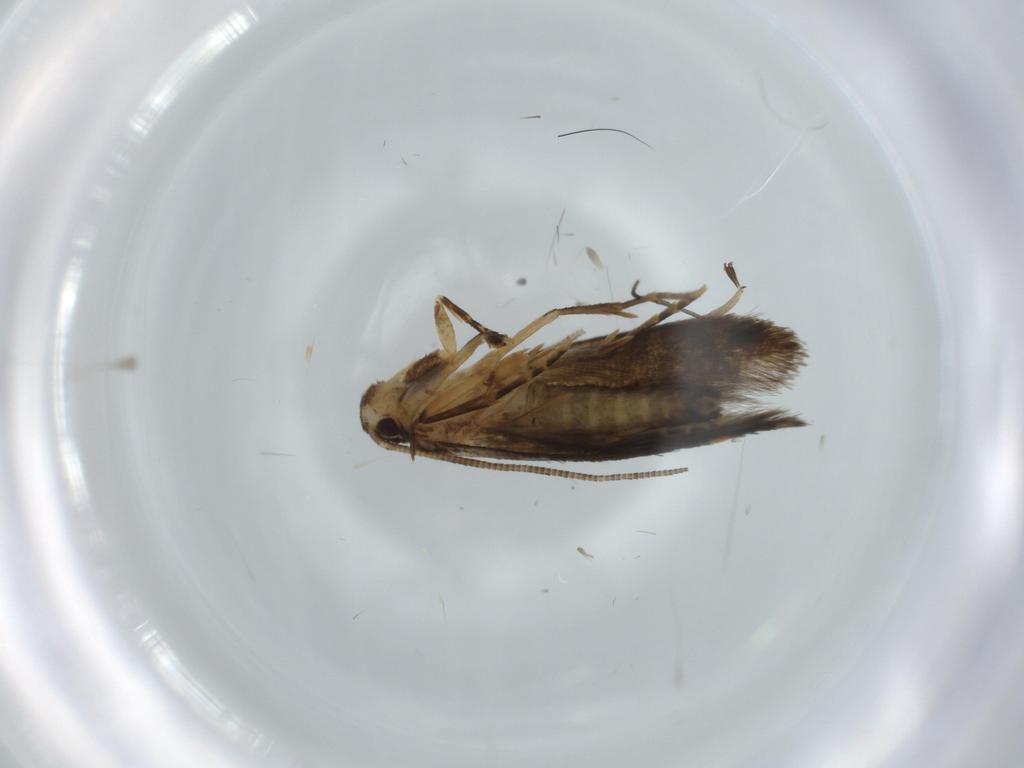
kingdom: Animalia
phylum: Arthropoda
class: Insecta
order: Lepidoptera
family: Tineidae
